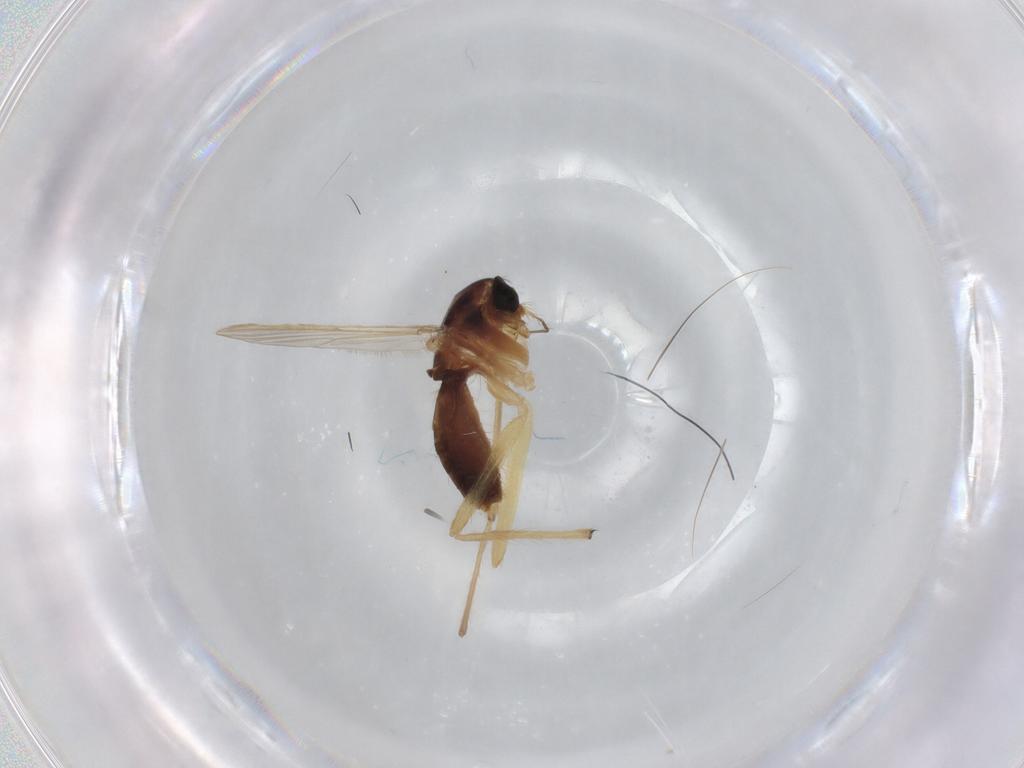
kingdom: Animalia
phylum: Arthropoda
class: Insecta
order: Diptera
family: Chironomidae
